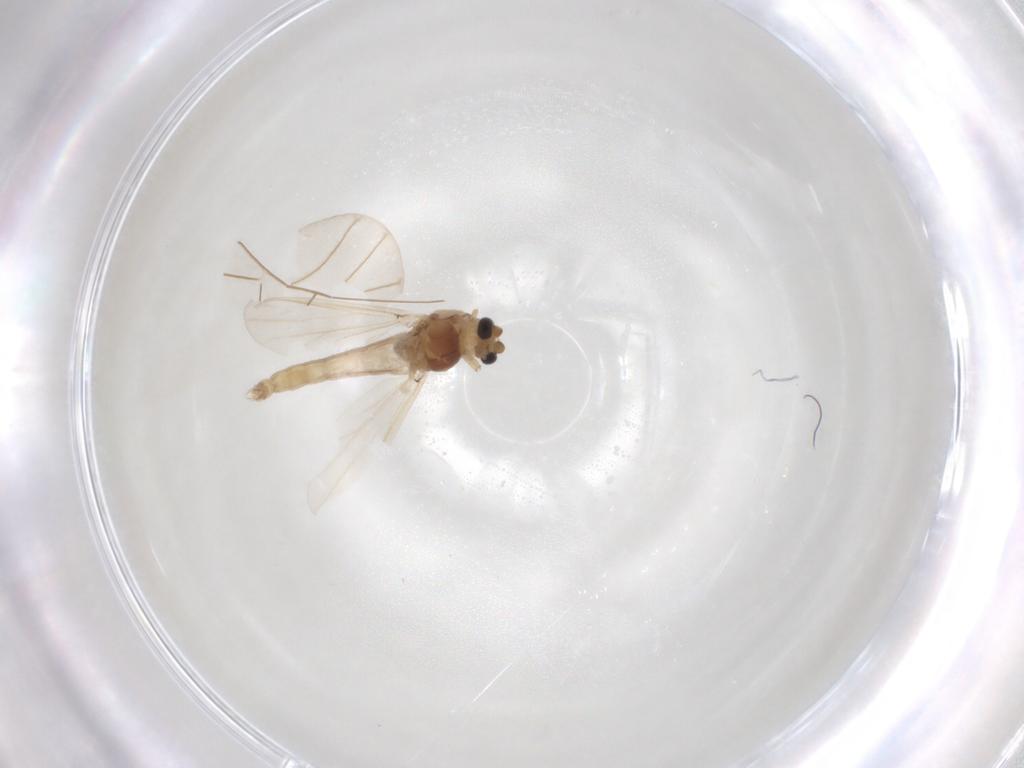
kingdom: Animalia
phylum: Arthropoda
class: Insecta
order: Diptera
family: Chironomidae
